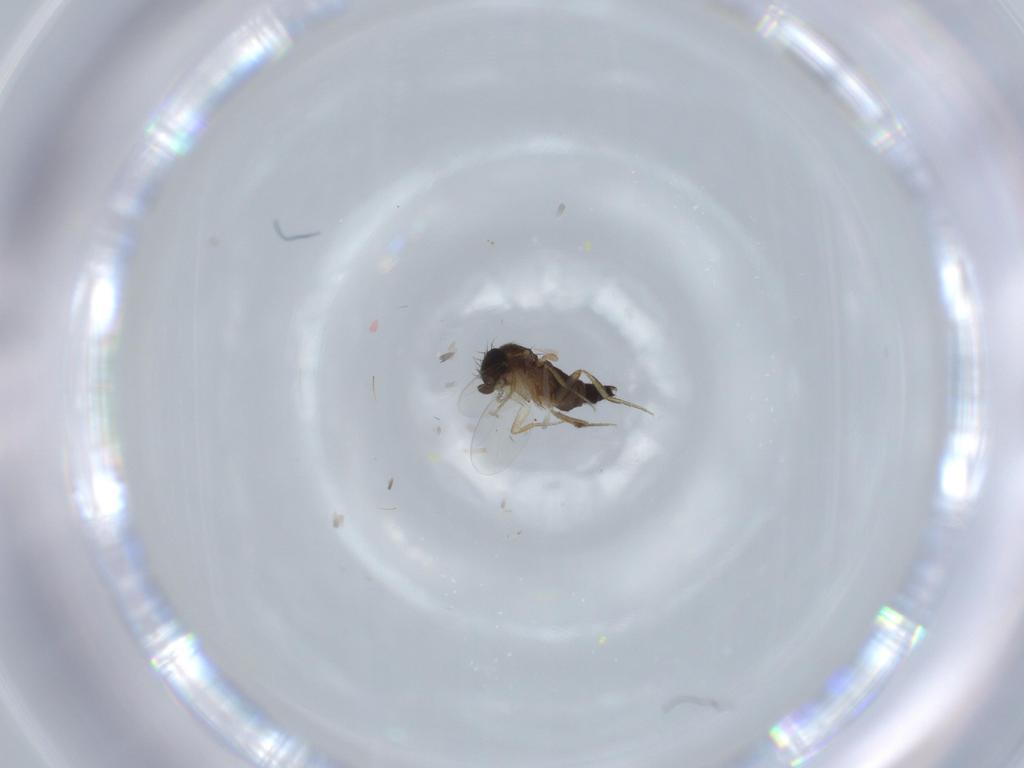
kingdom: Animalia
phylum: Arthropoda
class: Insecta
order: Diptera
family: Phoridae
